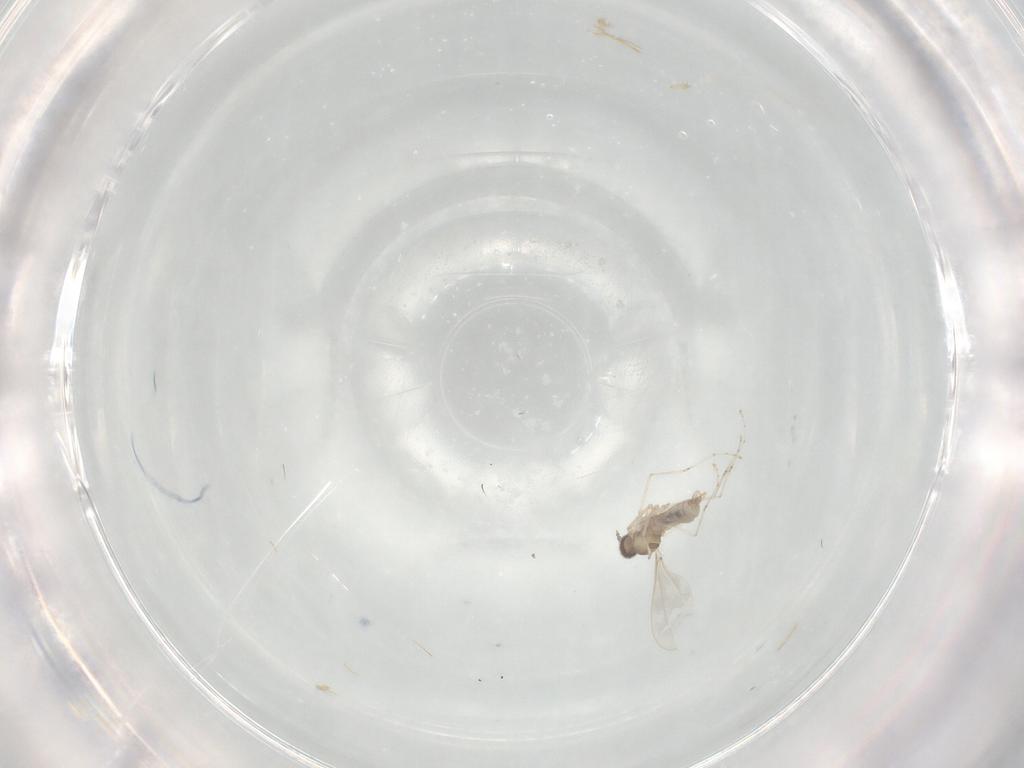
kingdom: Animalia
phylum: Arthropoda
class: Insecta
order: Diptera
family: Cecidomyiidae
